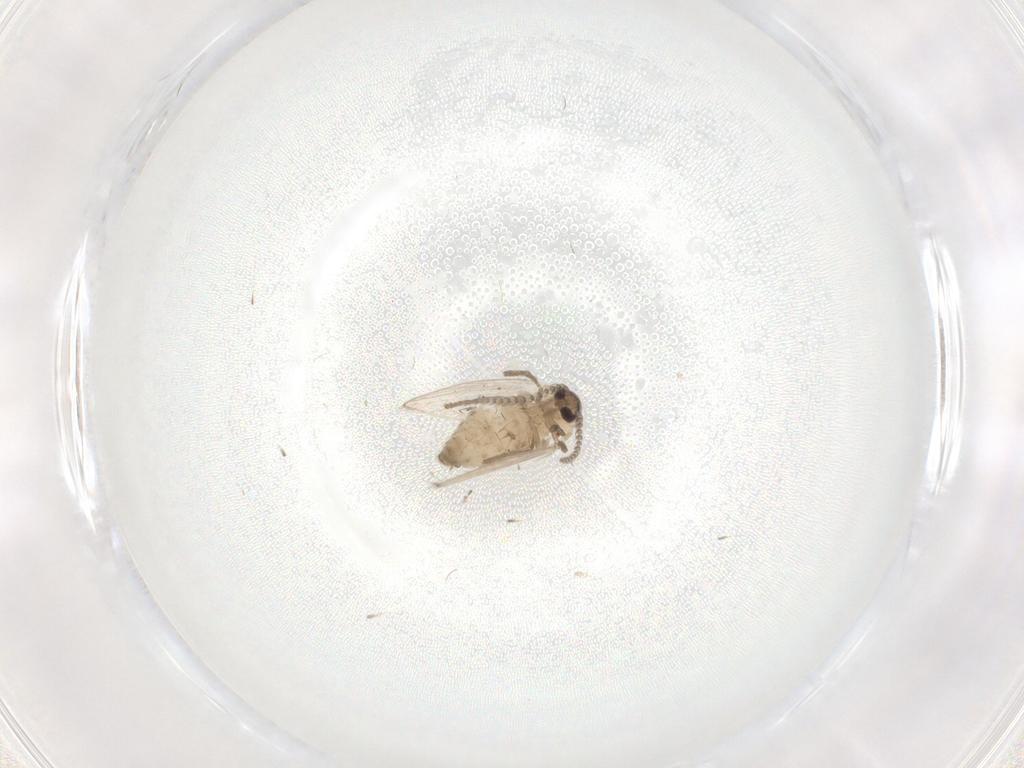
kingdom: Animalia
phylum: Arthropoda
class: Insecta
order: Diptera
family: Psychodidae
